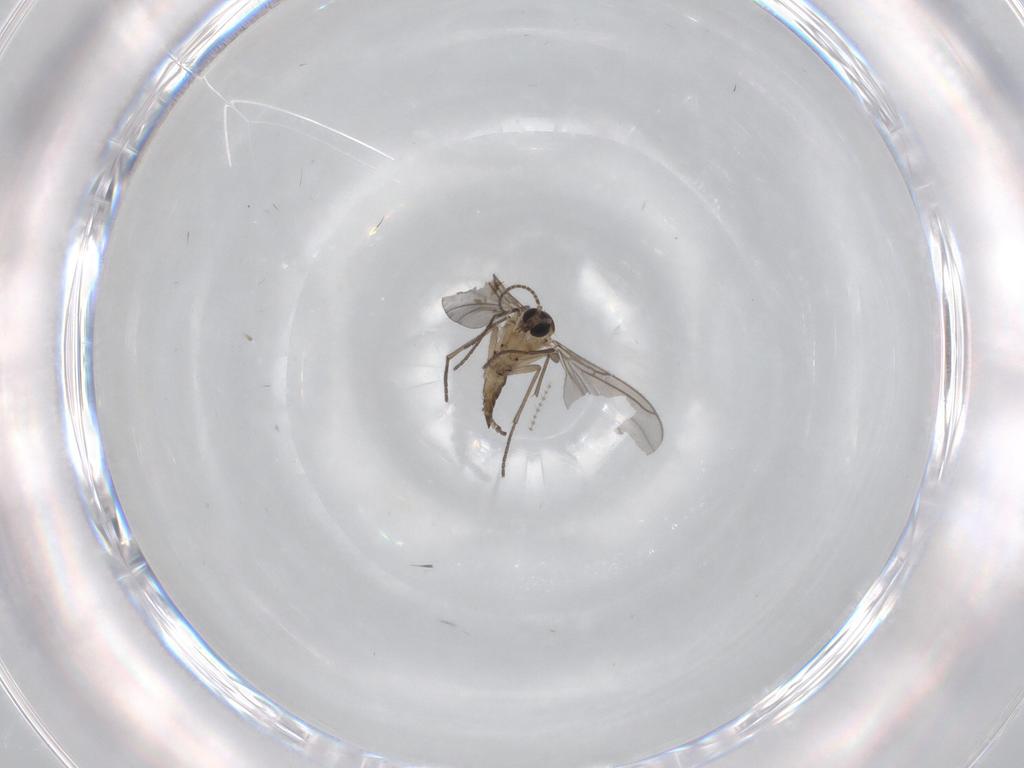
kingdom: Animalia
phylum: Arthropoda
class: Insecta
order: Diptera
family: Sciaridae
